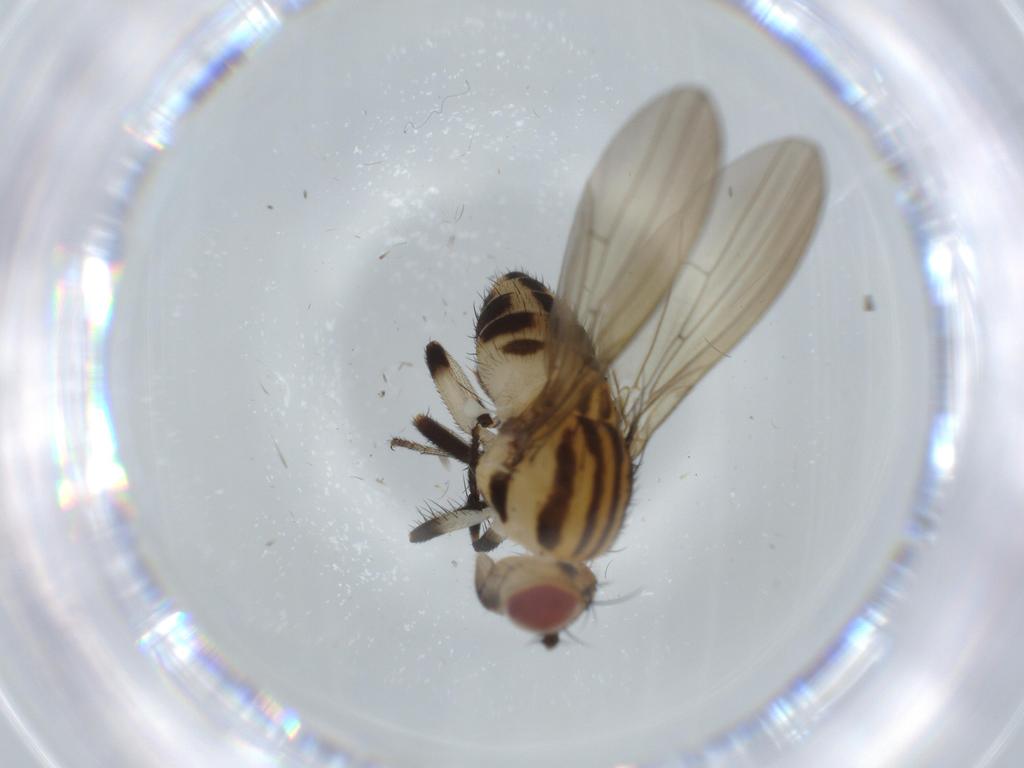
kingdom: Animalia
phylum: Arthropoda
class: Insecta
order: Diptera
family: Lauxaniidae
